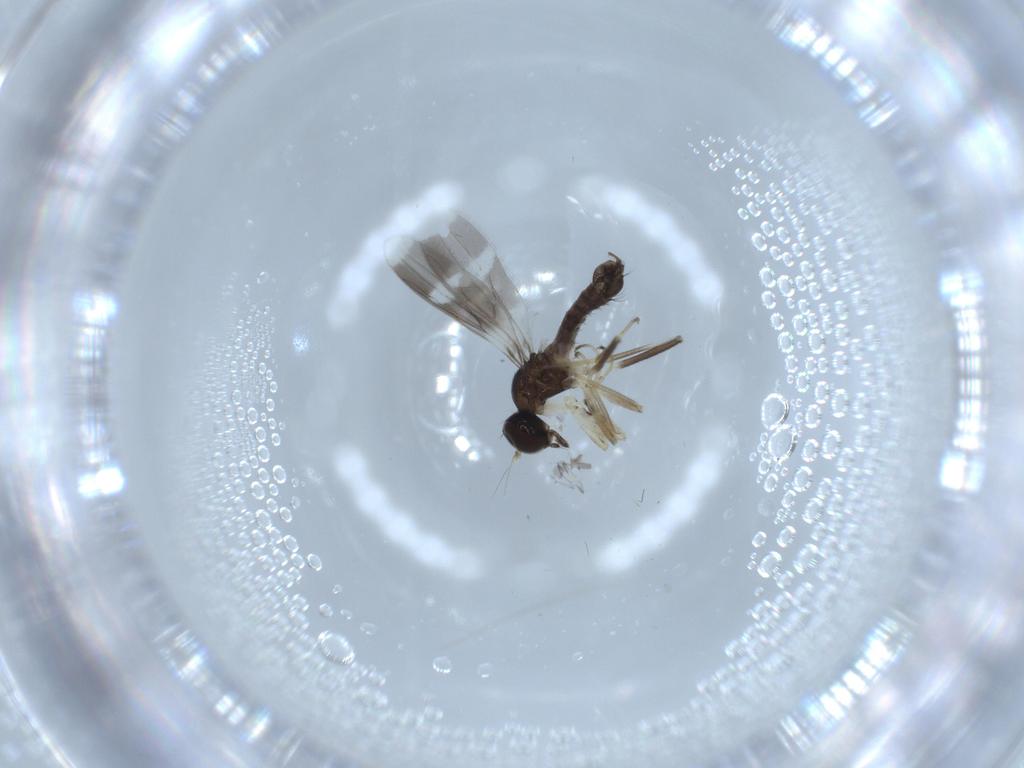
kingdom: Animalia
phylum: Arthropoda
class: Insecta
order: Diptera
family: Hybotidae
